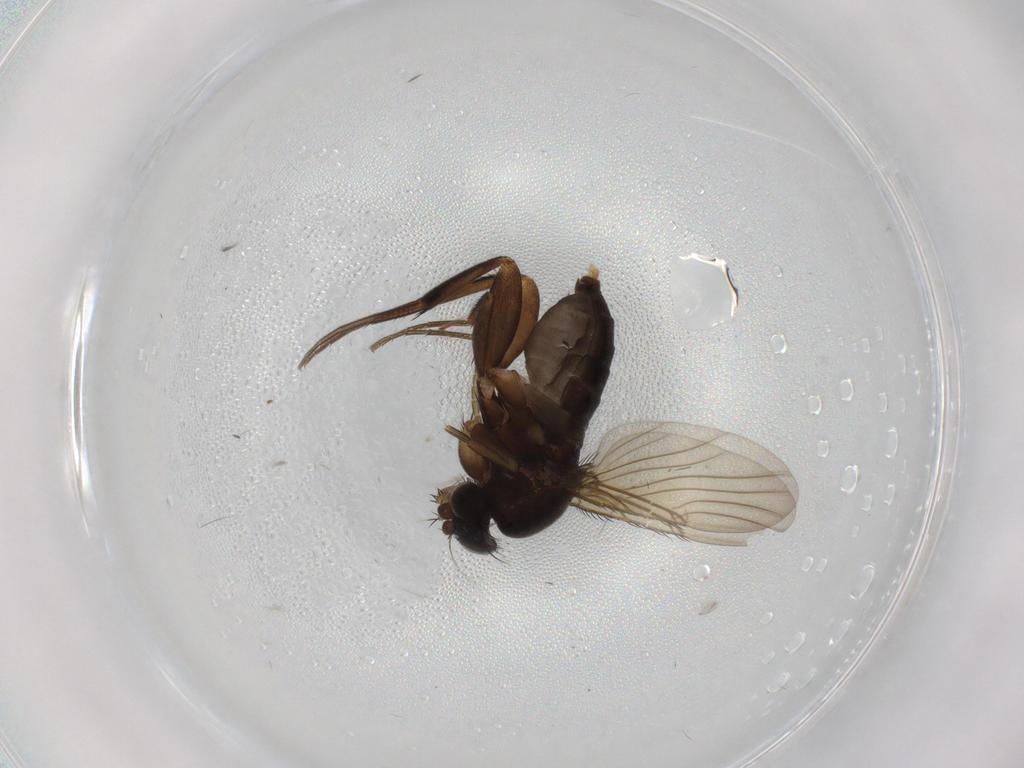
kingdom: Animalia
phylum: Arthropoda
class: Insecta
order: Diptera
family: Phoridae
